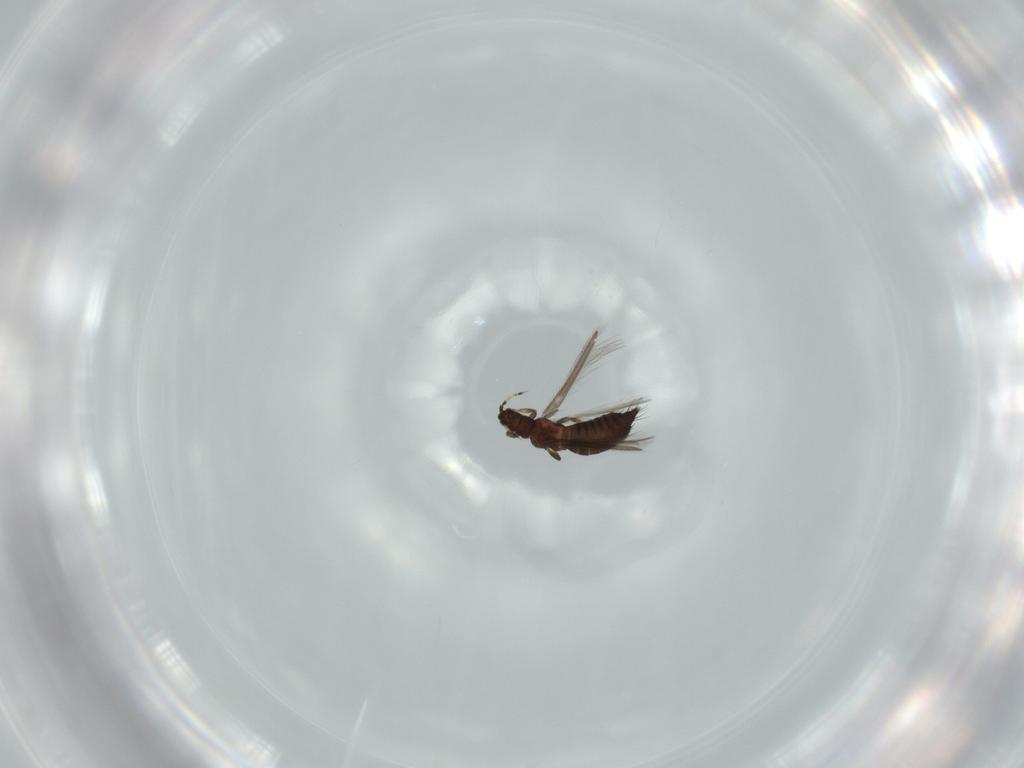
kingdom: Animalia
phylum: Arthropoda
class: Insecta
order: Thysanoptera
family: Thripidae
